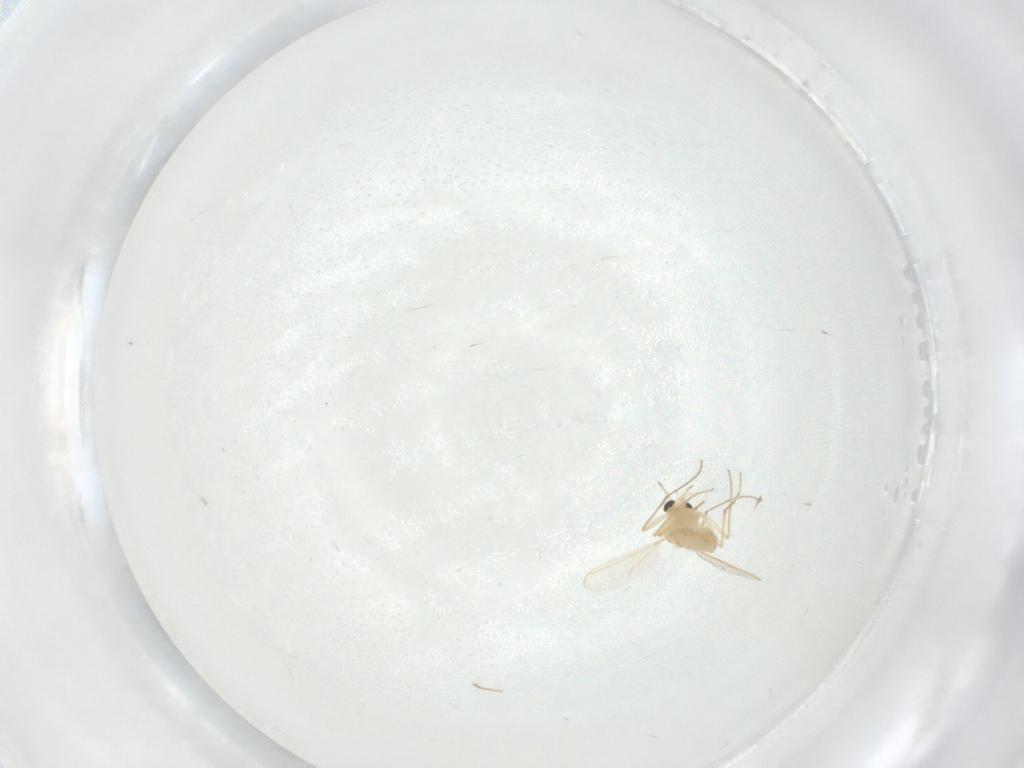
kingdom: Animalia
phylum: Arthropoda
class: Insecta
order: Diptera
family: Chironomidae
